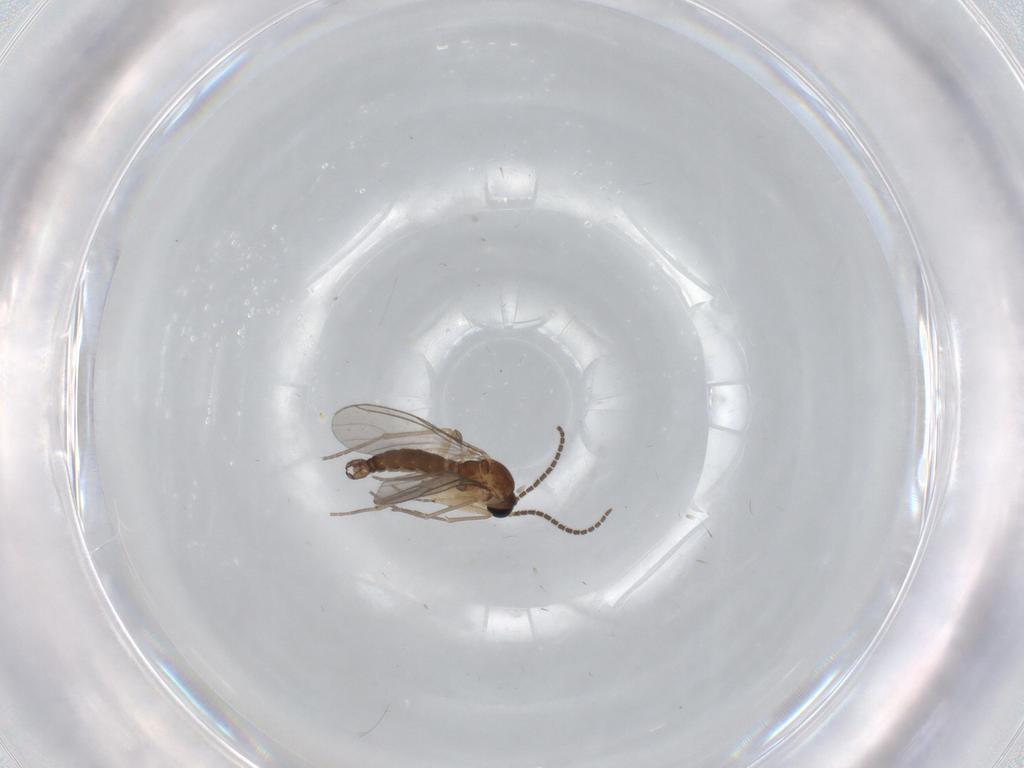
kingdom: Animalia
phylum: Arthropoda
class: Insecta
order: Diptera
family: Sciaridae
